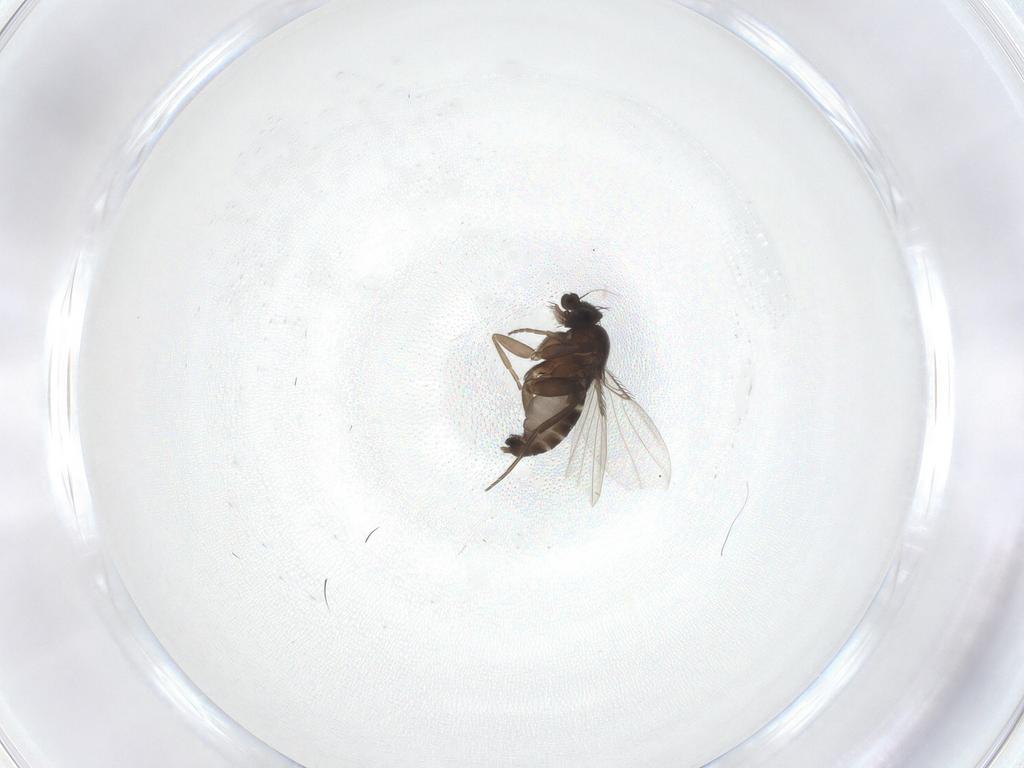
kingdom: Animalia
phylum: Arthropoda
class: Insecta
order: Diptera
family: Phoridae
